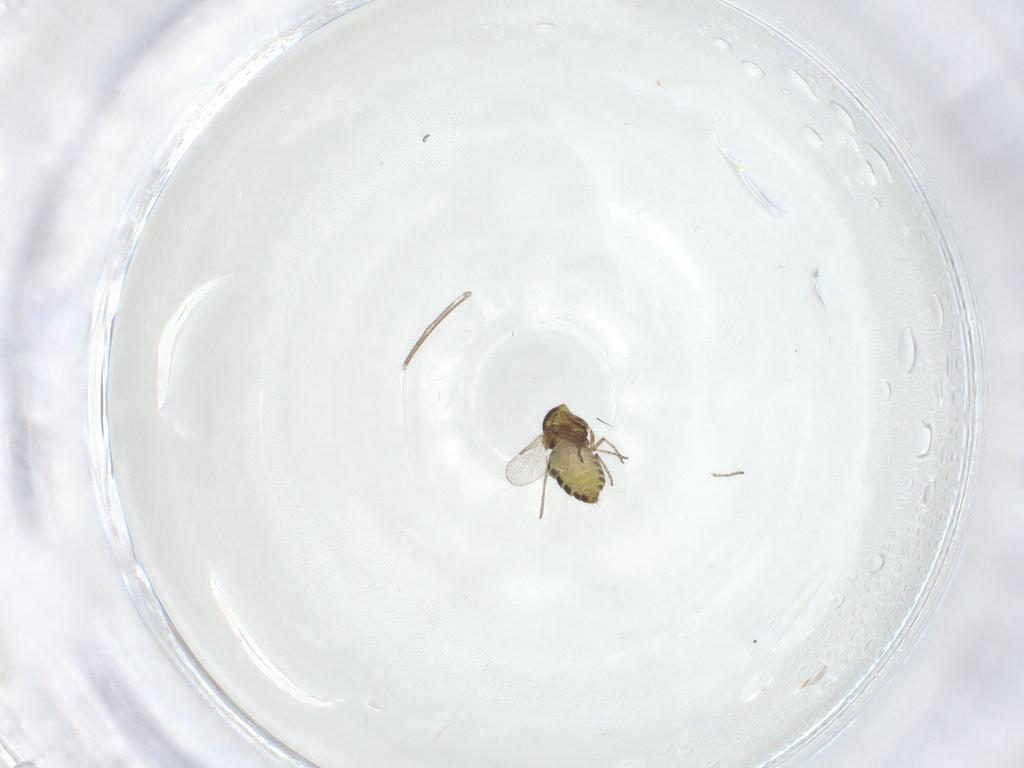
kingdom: Animalia
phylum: Arthropoda
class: Insecta
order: Diptera
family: Ceratopogonidae
